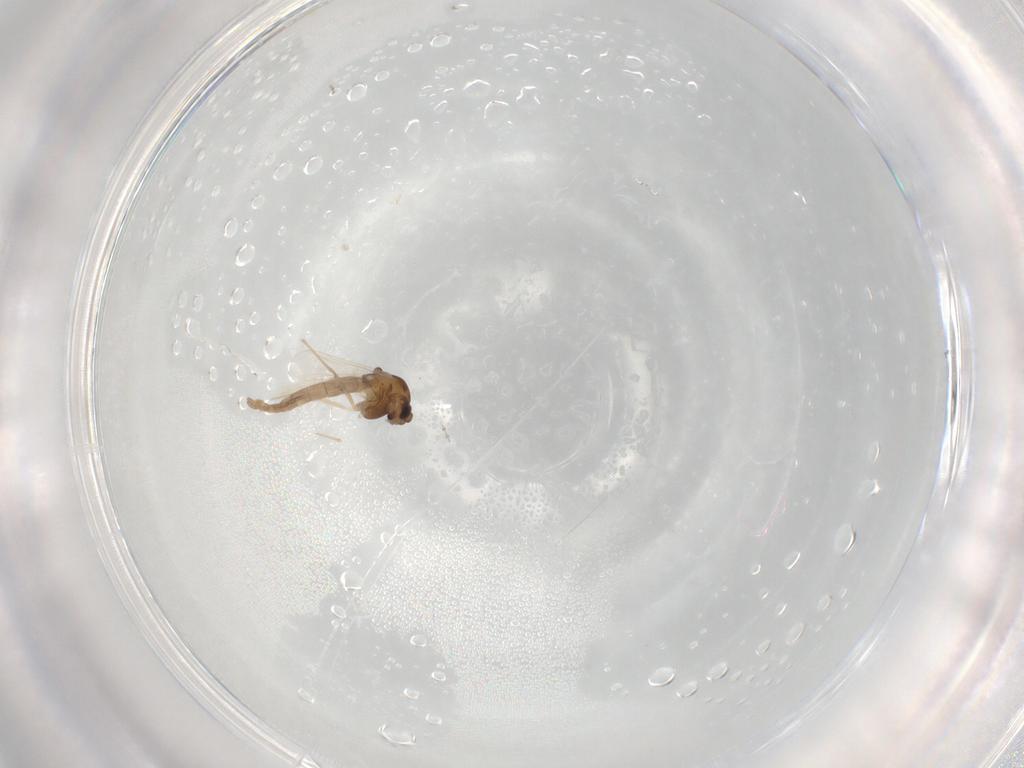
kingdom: Animalia
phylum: Arthropoda
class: Insecta
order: Diptera
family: Chironomidae
